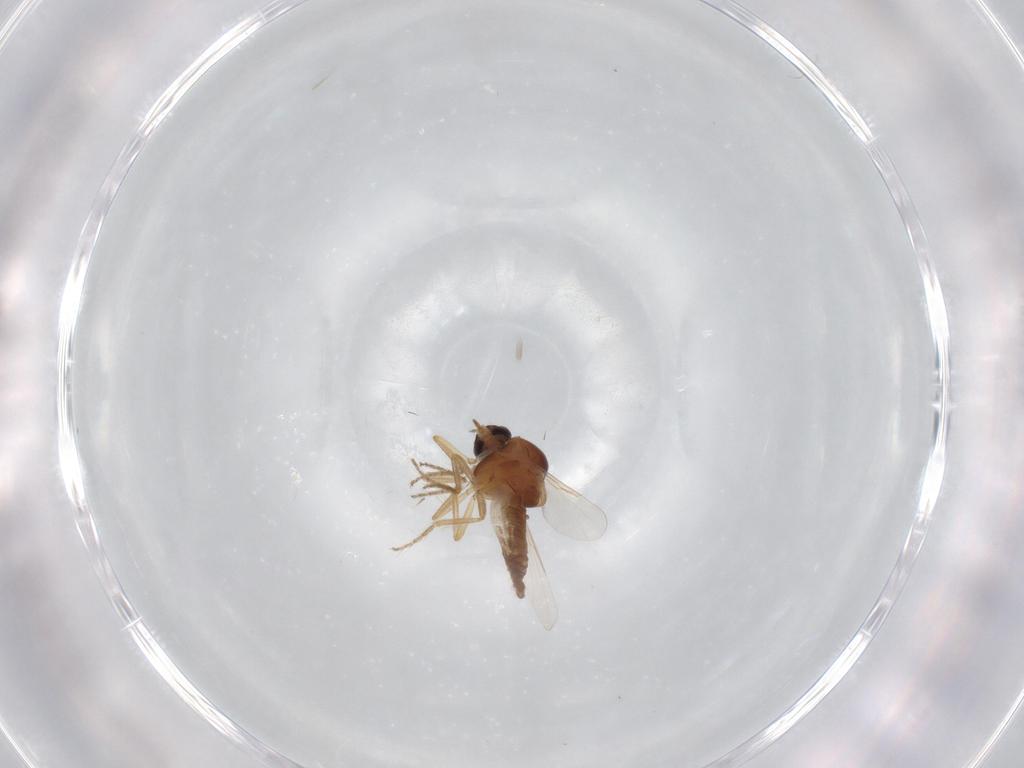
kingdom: Animalia
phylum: Arthropoda
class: Insecta
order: Diptera
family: Ceratopogonidae
